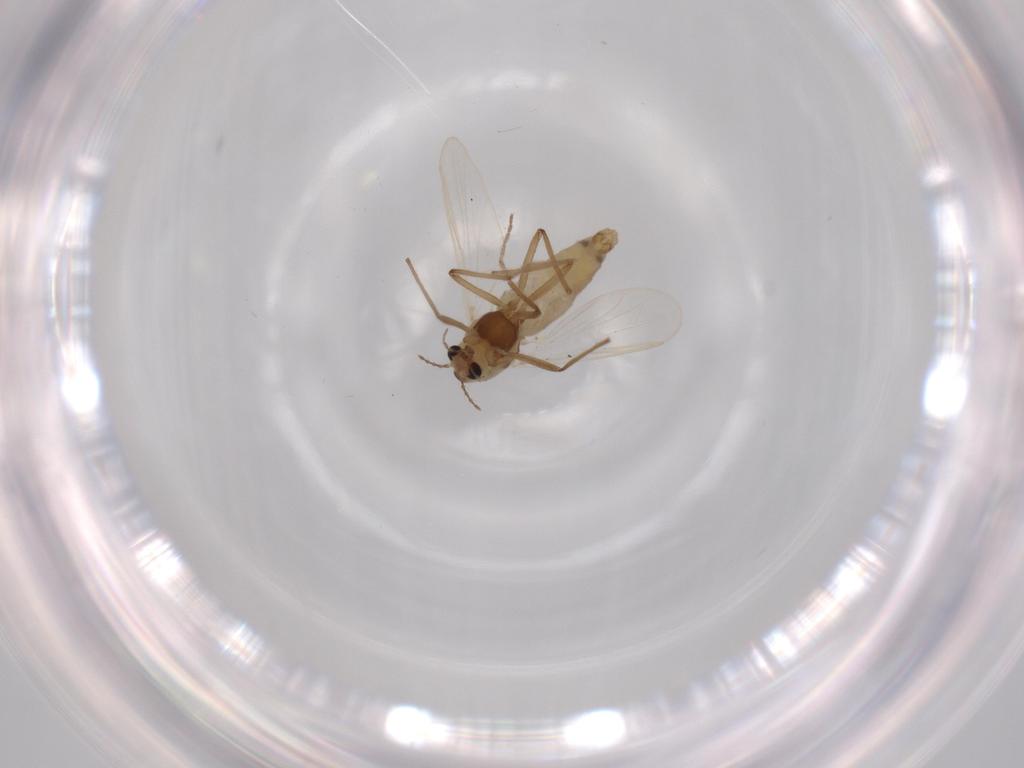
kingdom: Animalia
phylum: Arthropoda
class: Insecta
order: Diptera
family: Chironomidae
